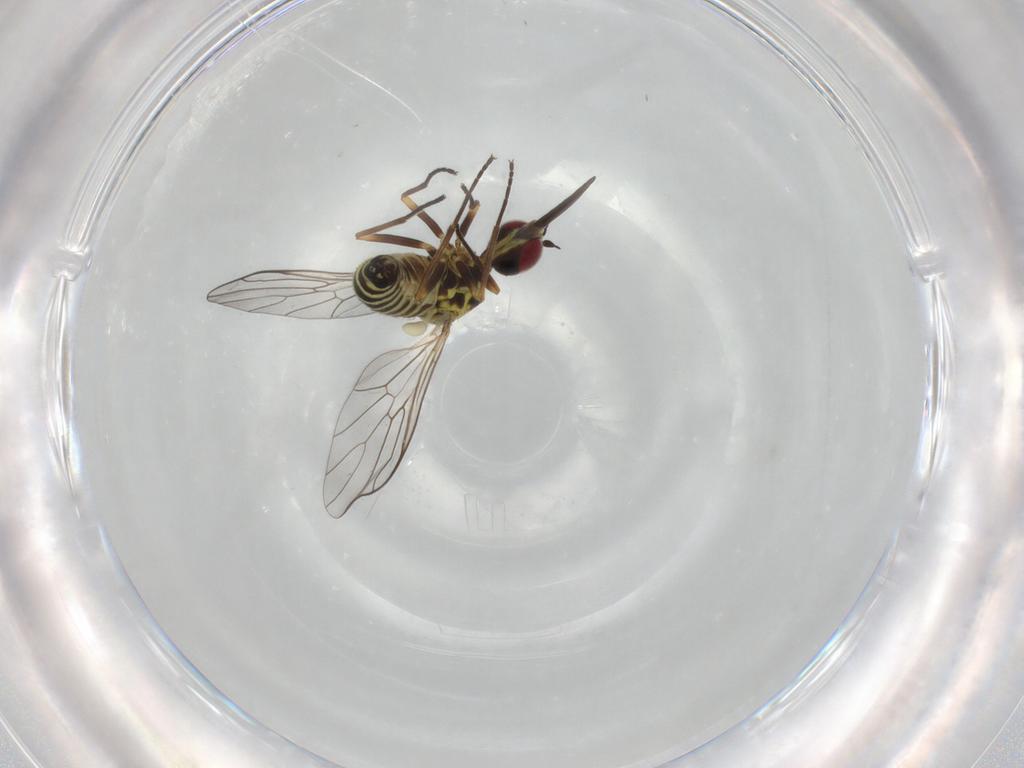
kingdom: Animalia
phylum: Arthropoda
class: Insecta
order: Diptera
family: Bombyliidae
